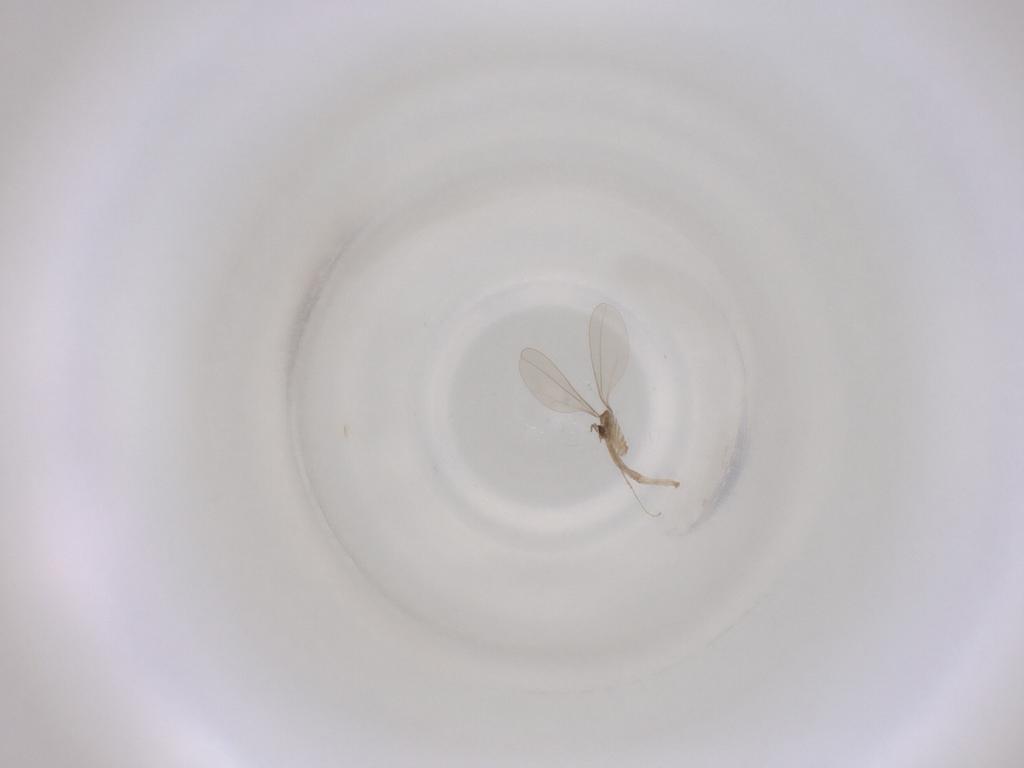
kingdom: Animalia
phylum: Arthropoda
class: Insecta
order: Diptera
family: Cecidomyiidae
